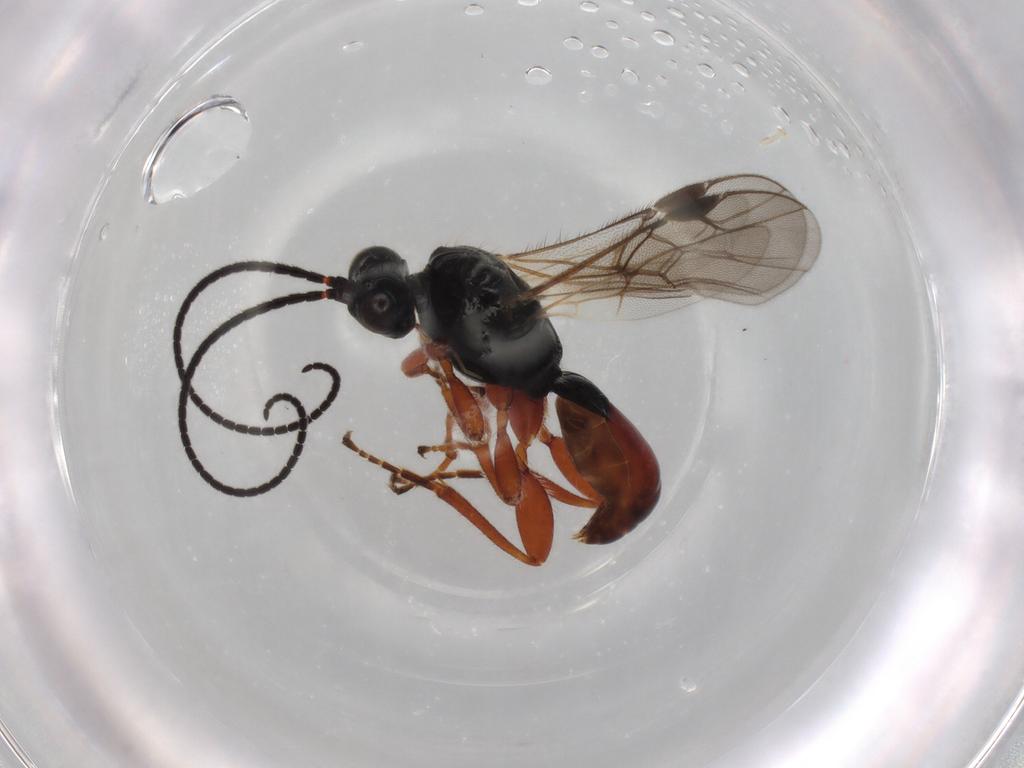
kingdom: Animalia
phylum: Arthropoda
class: Insecta
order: Hymenoptera
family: Braconidae
